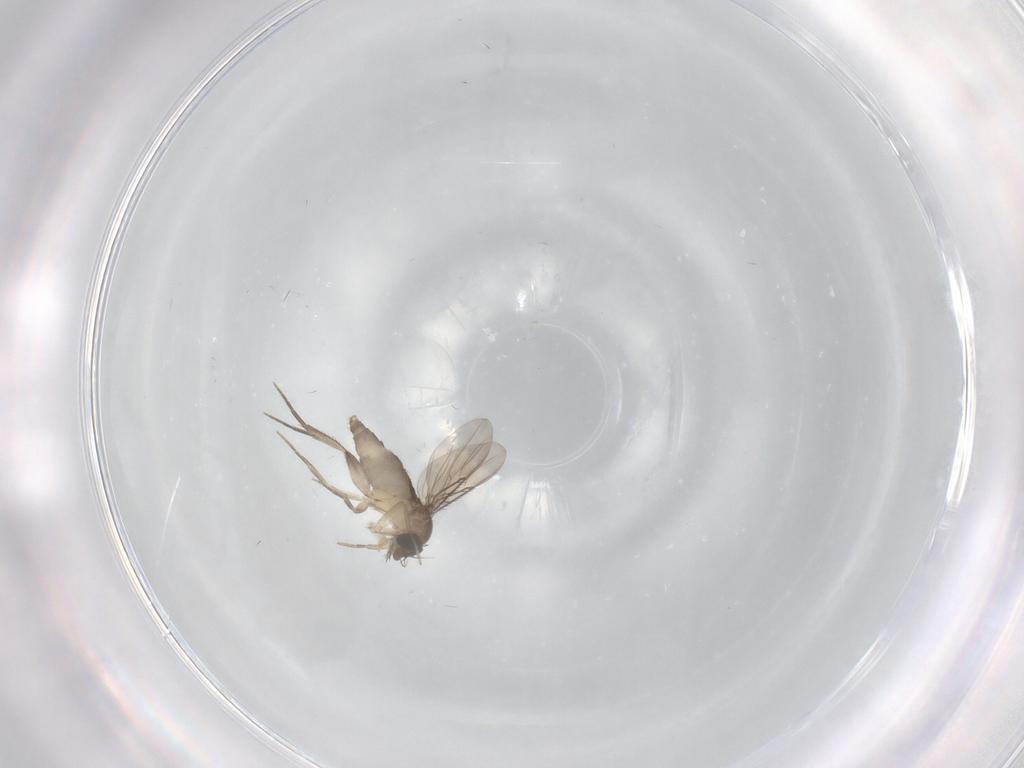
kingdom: Animalia
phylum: Arthropoda
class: Insecta
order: Diptera
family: Phoridae
